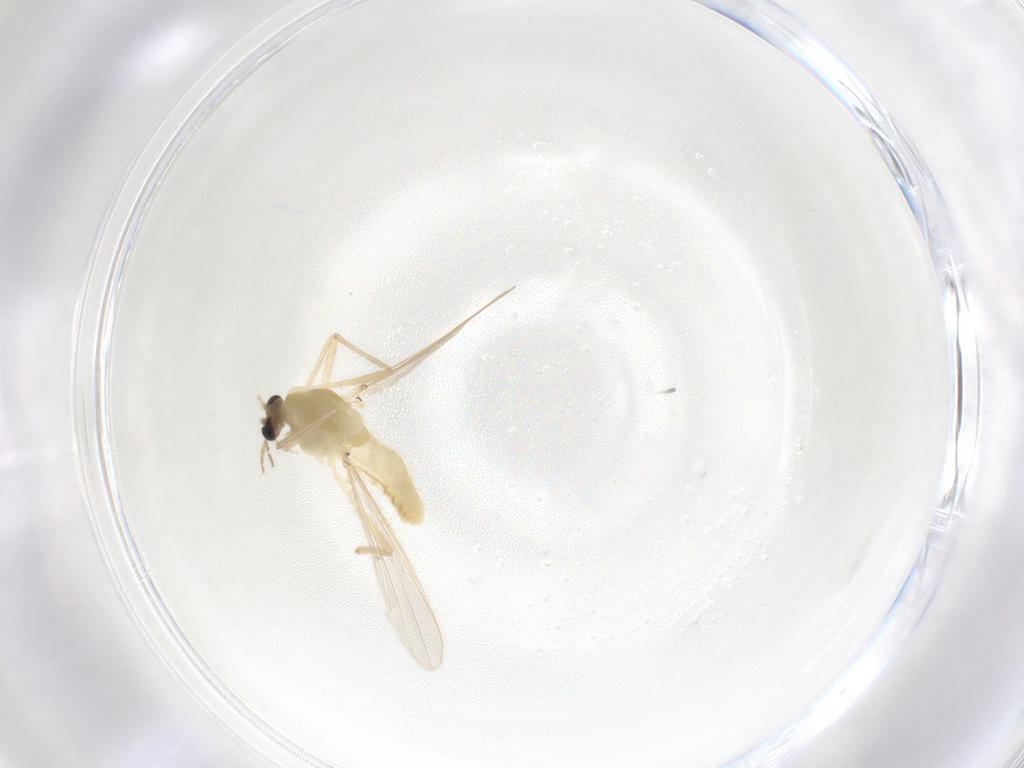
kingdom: Animalia
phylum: Arthropoda
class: Insecta
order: Diptera
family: Chironomidae
